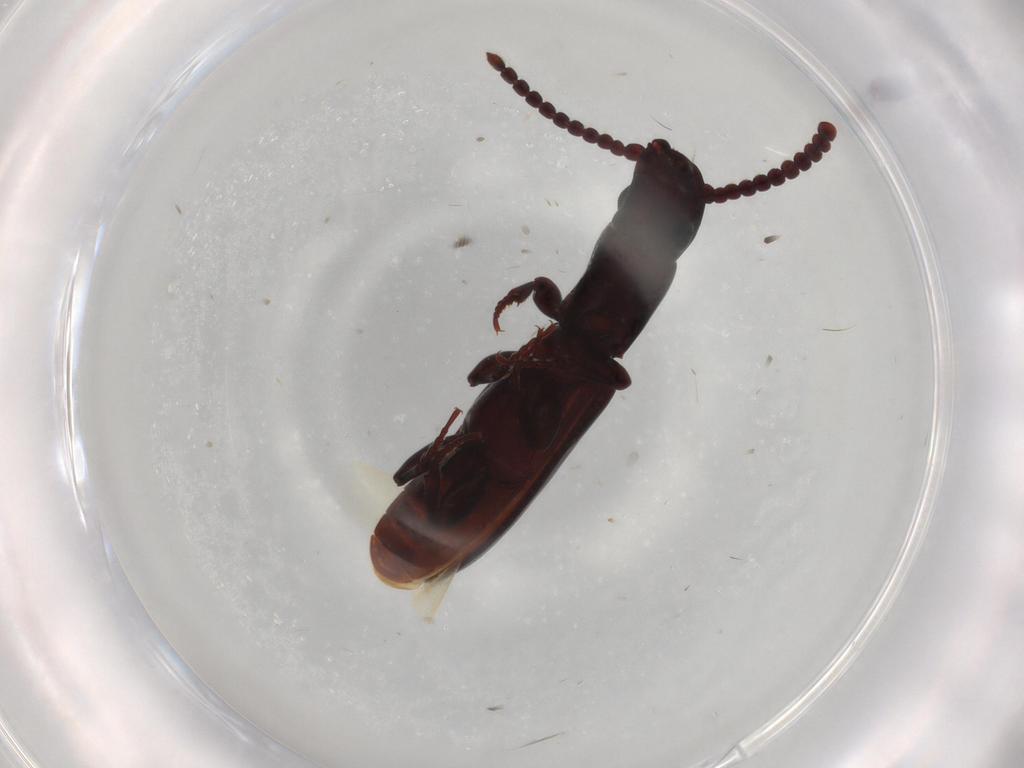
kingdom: Animalia
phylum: Arthropoda
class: Insecta
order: Coleoptera
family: Passandridae
